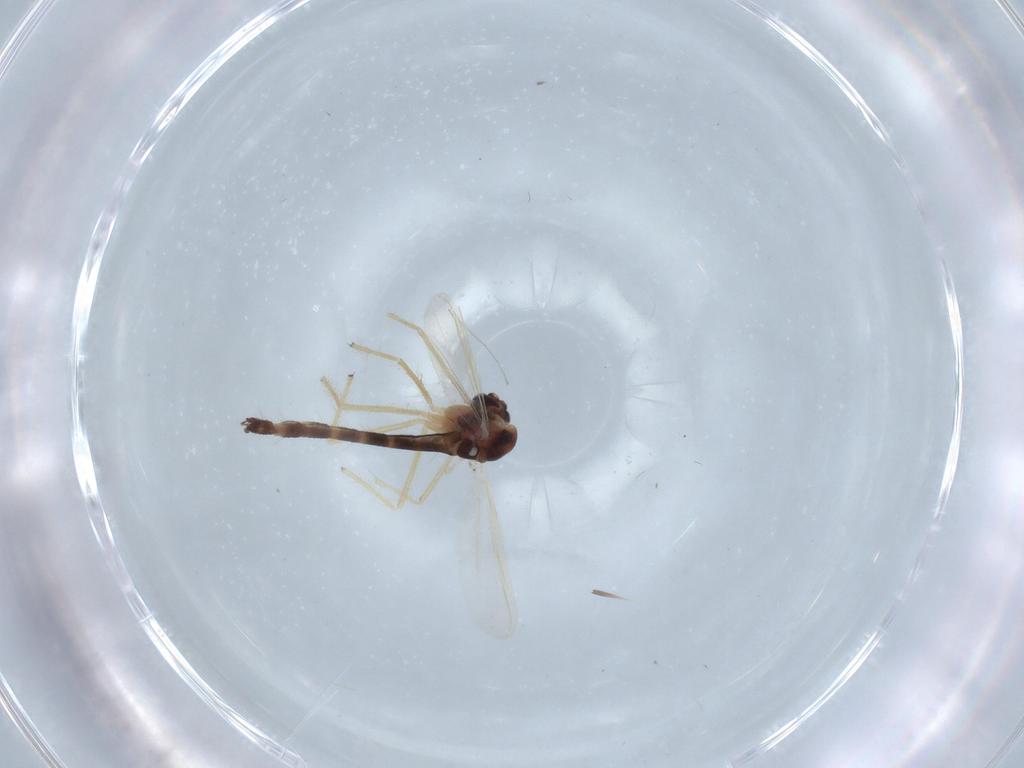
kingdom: Animalia
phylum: Arthropoda
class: Insecta
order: Diptera
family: Chironomidae
